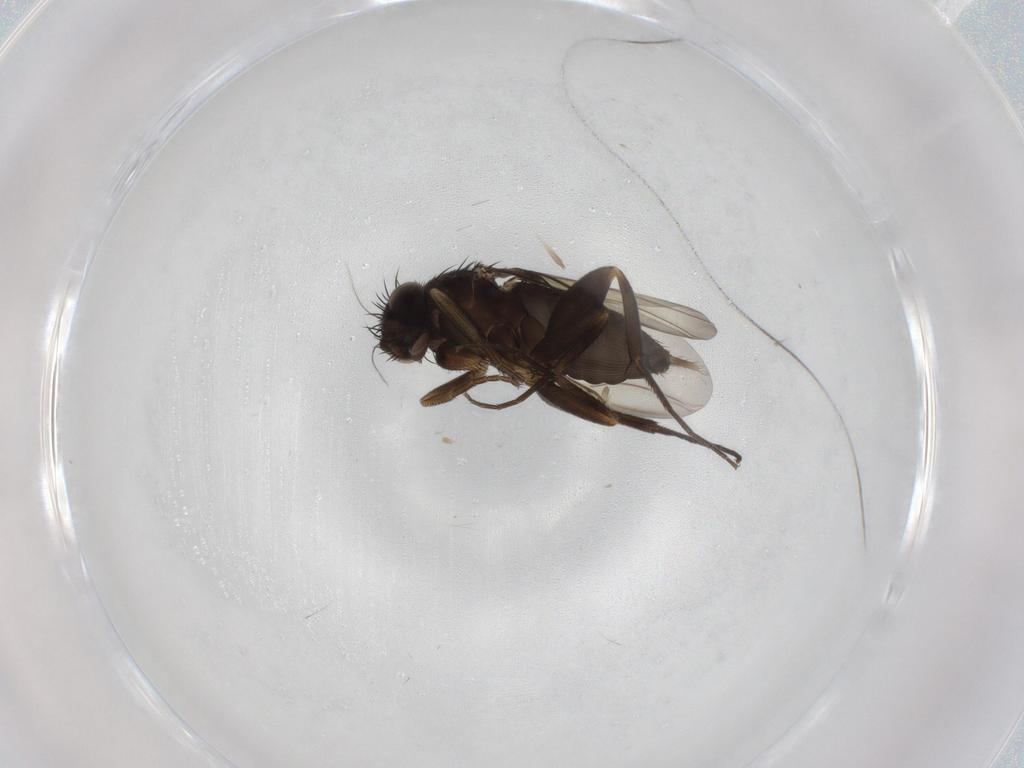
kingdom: Animalia
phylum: Arthropoda
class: Insecta
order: Diptera
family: Phoridae
